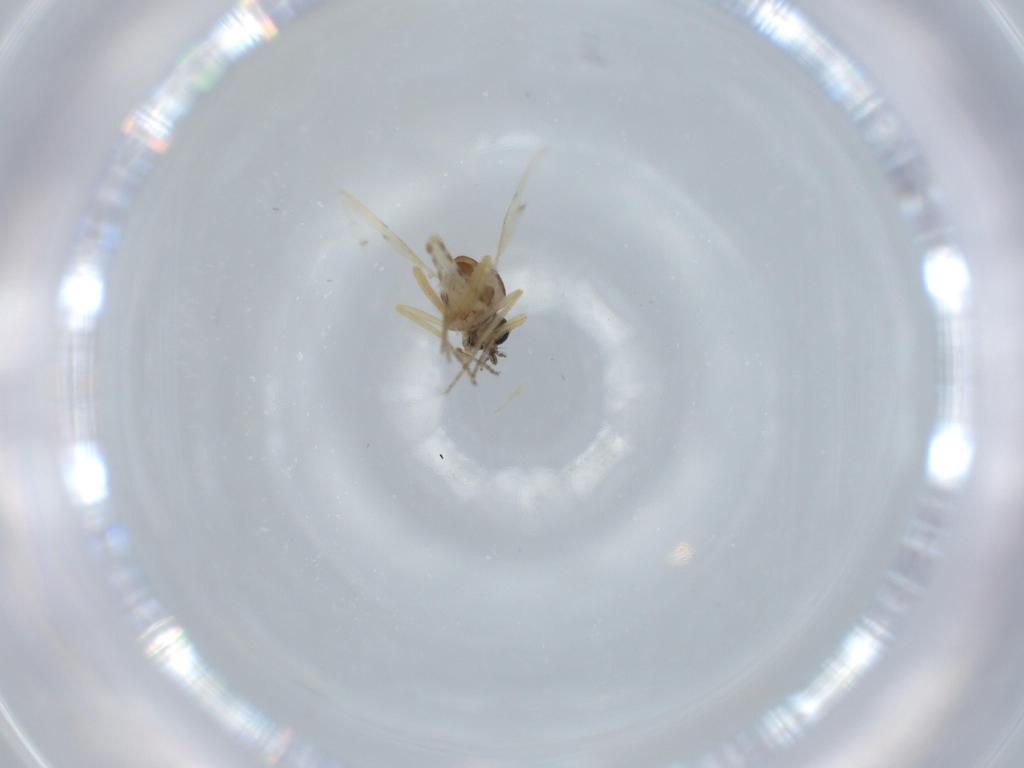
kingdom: Animalia
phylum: Arthropoda
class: Insecta
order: Diptera
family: Ceratopogonidae
